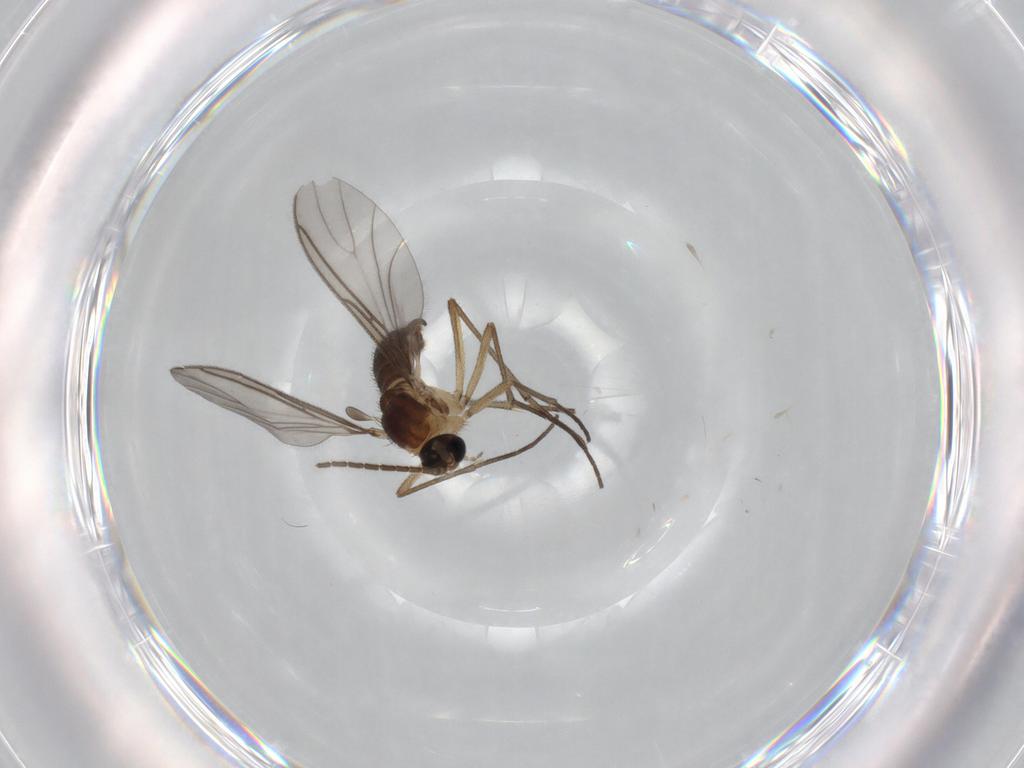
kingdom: Animalia
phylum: Arthropoda
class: Insecta
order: Diptera
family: Sciaridae
